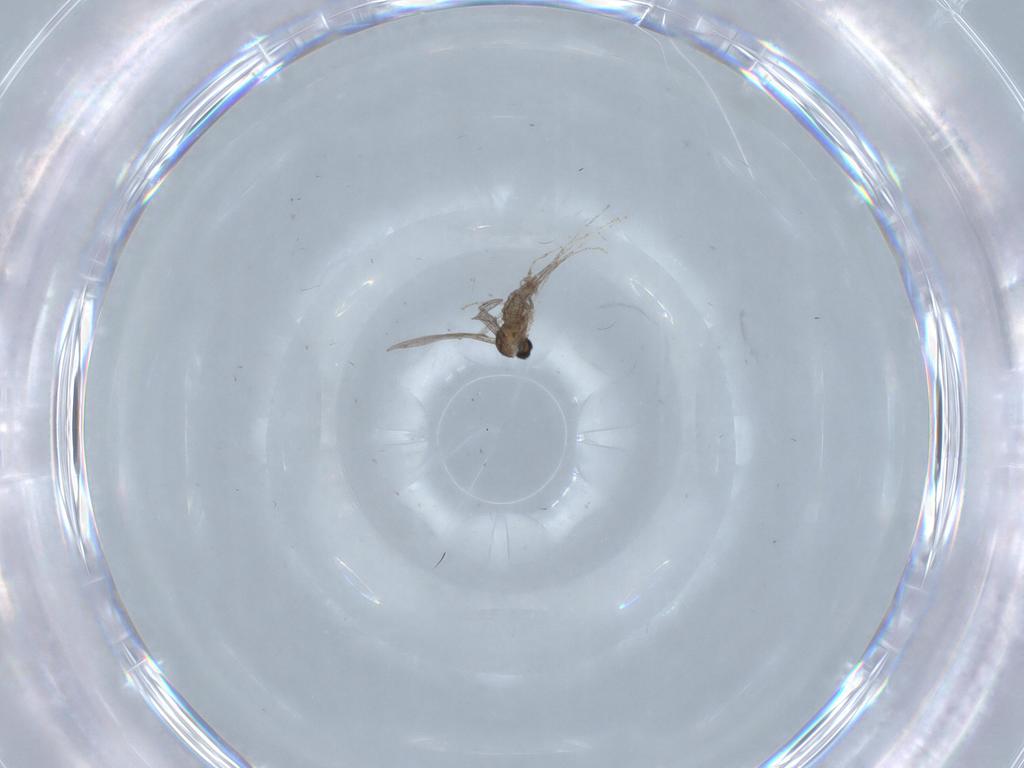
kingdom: Animalia
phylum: Arthropoda
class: Insecta
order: Diptera
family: Cecidomyiidae
